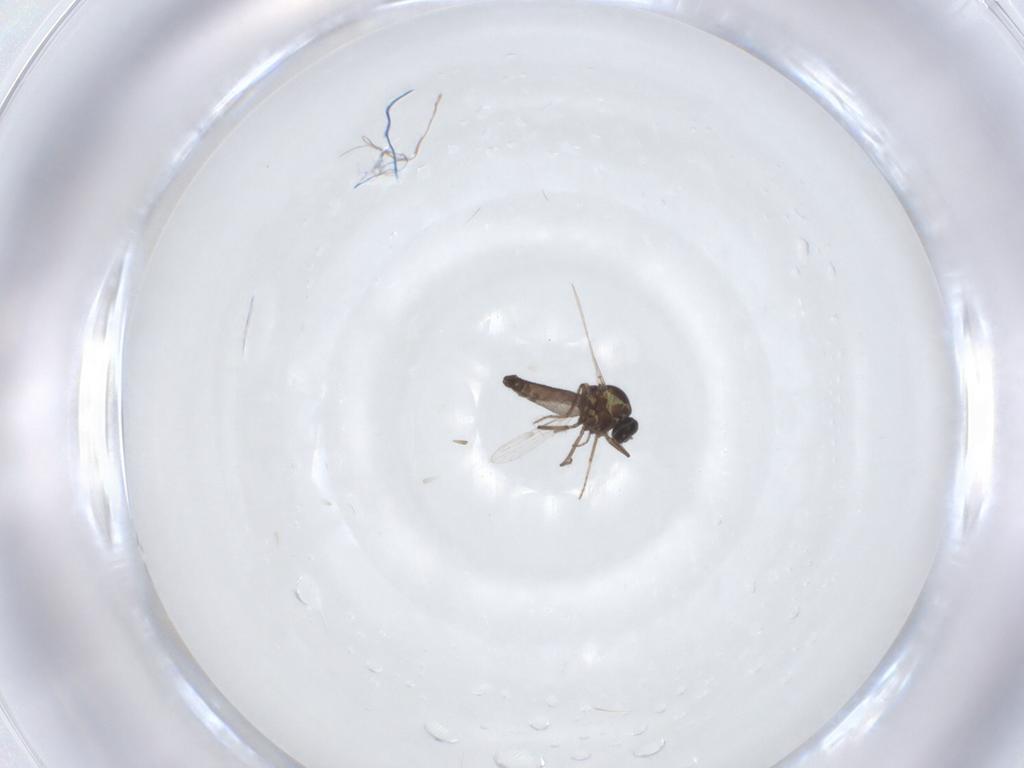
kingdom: Animalia
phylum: Arthropoda
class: Insecta
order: Diptera
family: Ceratopogonidae
